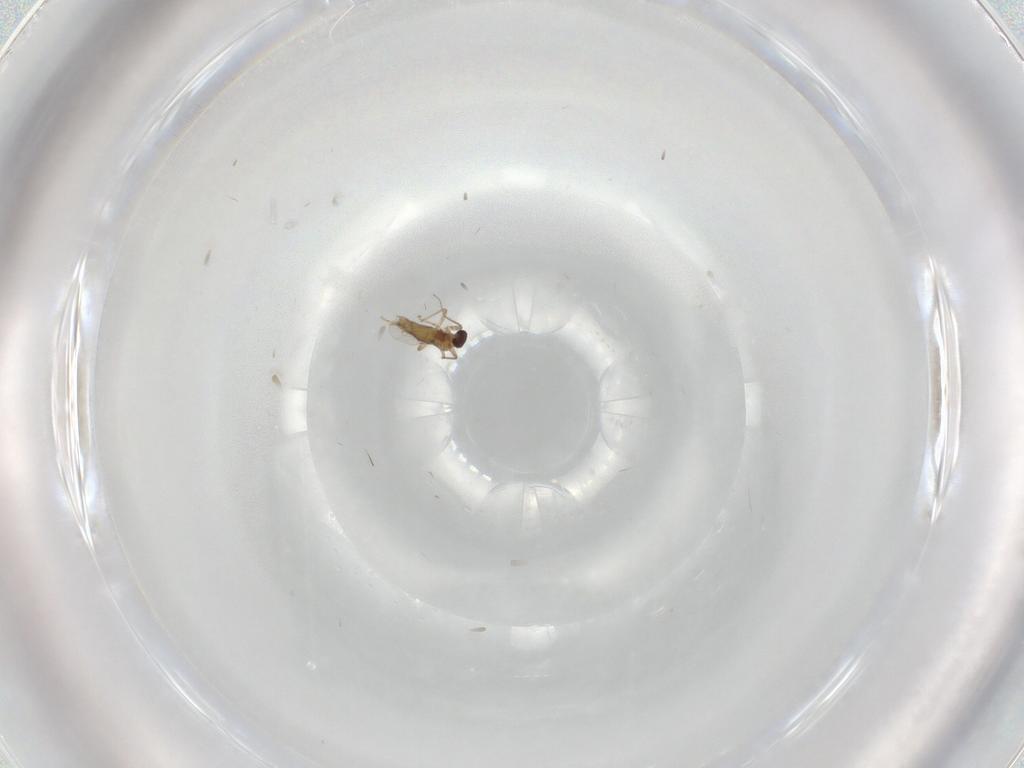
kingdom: Animalia
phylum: Arthropoda
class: Insecta
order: Diptera
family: Chironomidae
